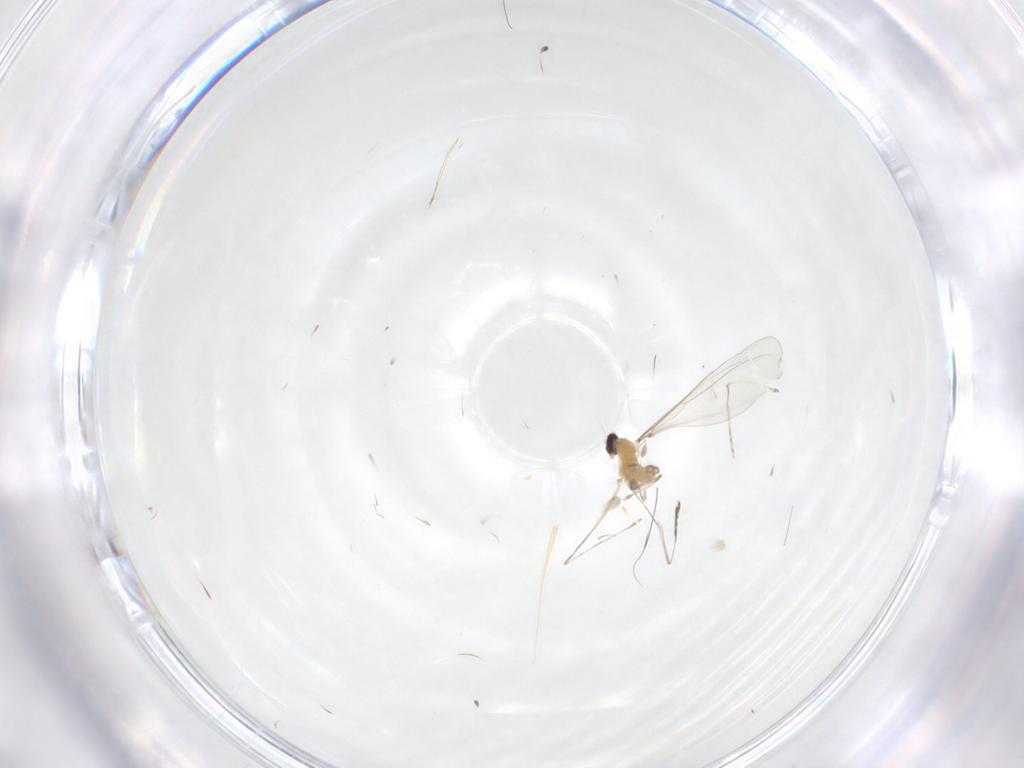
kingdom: Animalia
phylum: Arthropoda
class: Insecta
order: Diptera
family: Cecidomyiidae
